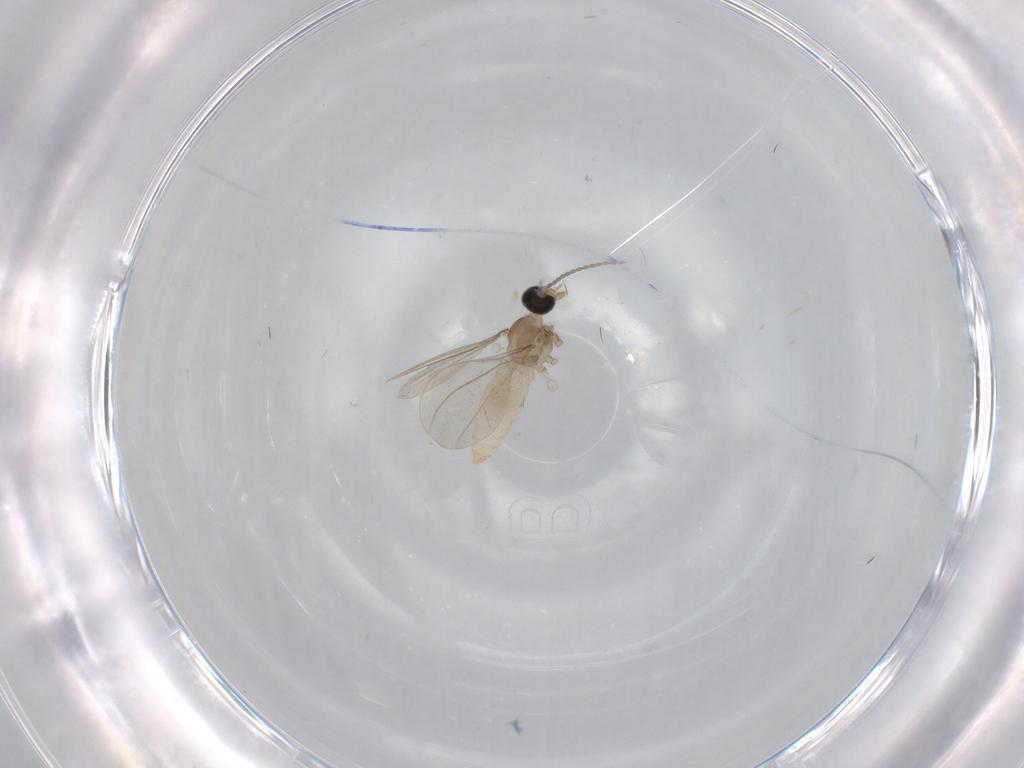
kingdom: Animalia
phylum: Arthropoda
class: Insecta
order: Diptera
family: Cecidomyiidae
